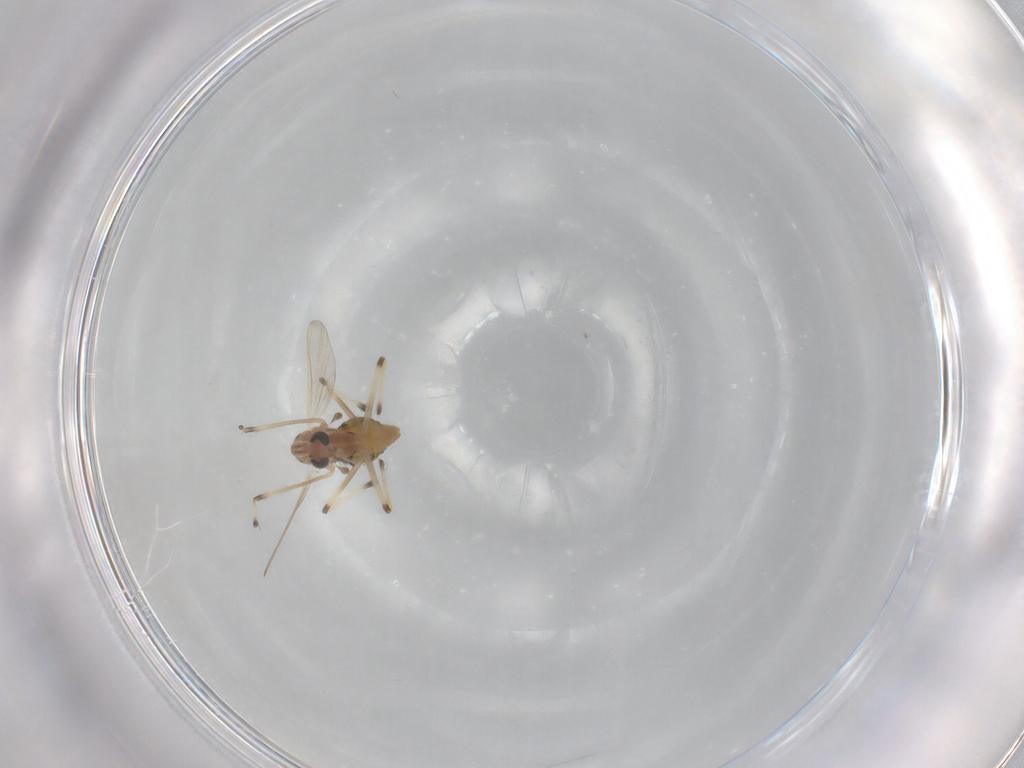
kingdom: Animalia
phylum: Arthropoda
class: Insecta
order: Diptera
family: Chironomidae
